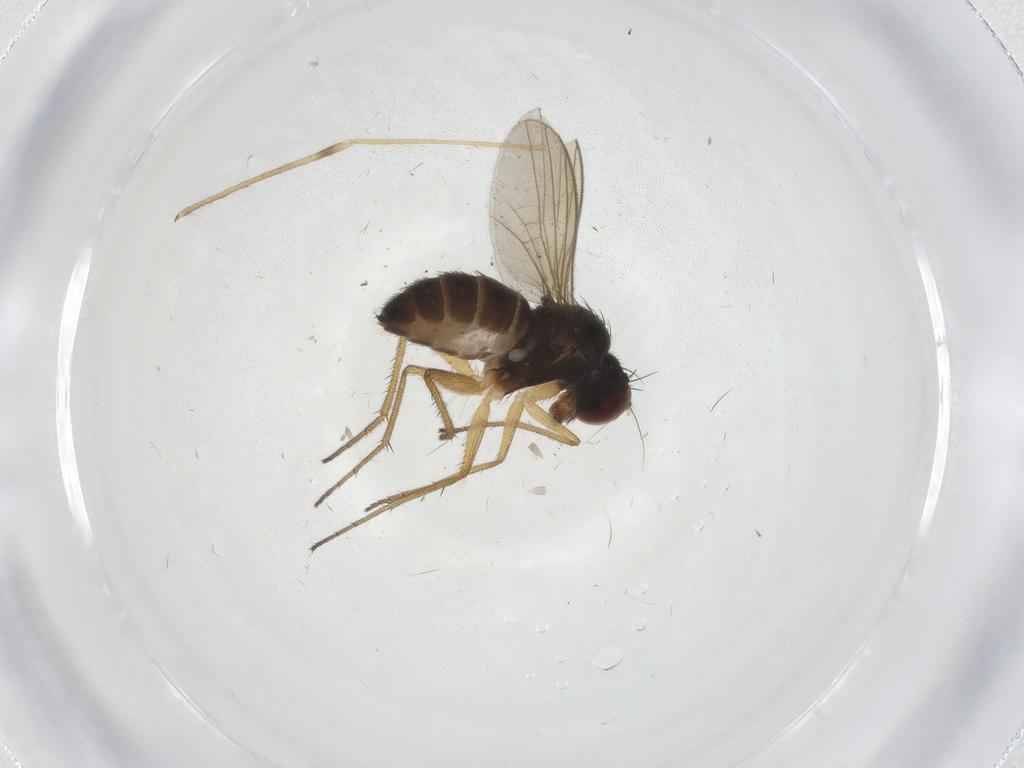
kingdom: Animalia
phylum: Arthropoda
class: Insecta
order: Diptera
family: Dolichopodidae
